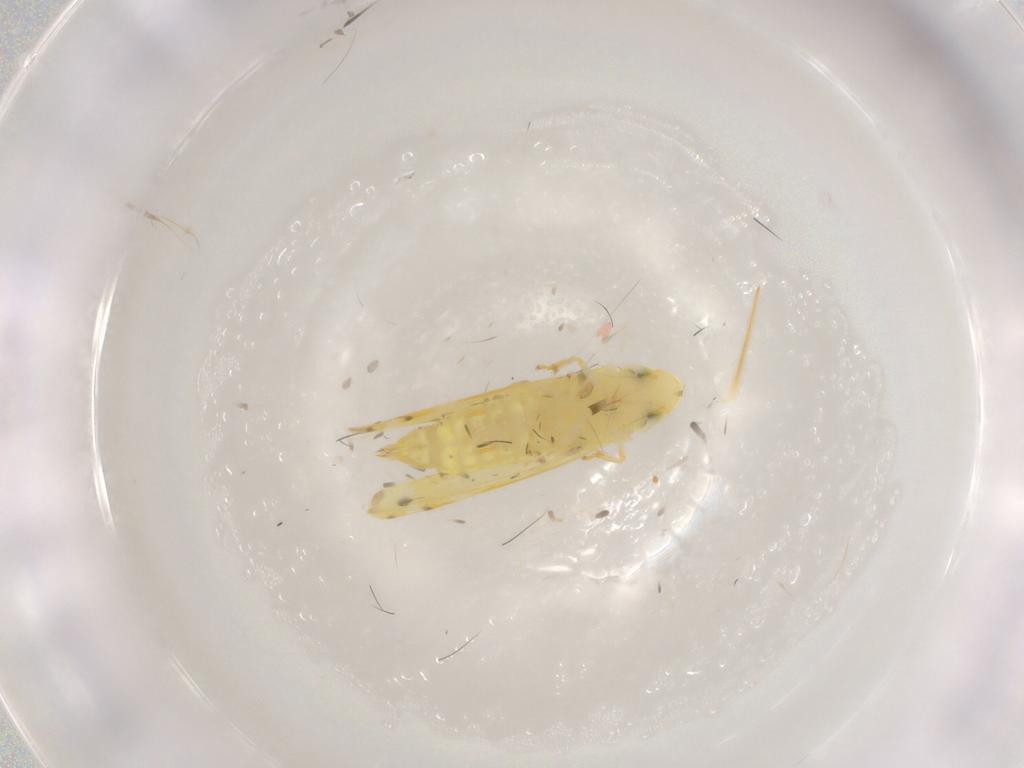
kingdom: Animalia
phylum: Arthropoda
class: Insecta
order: Hemiptera
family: Cicadellidae
